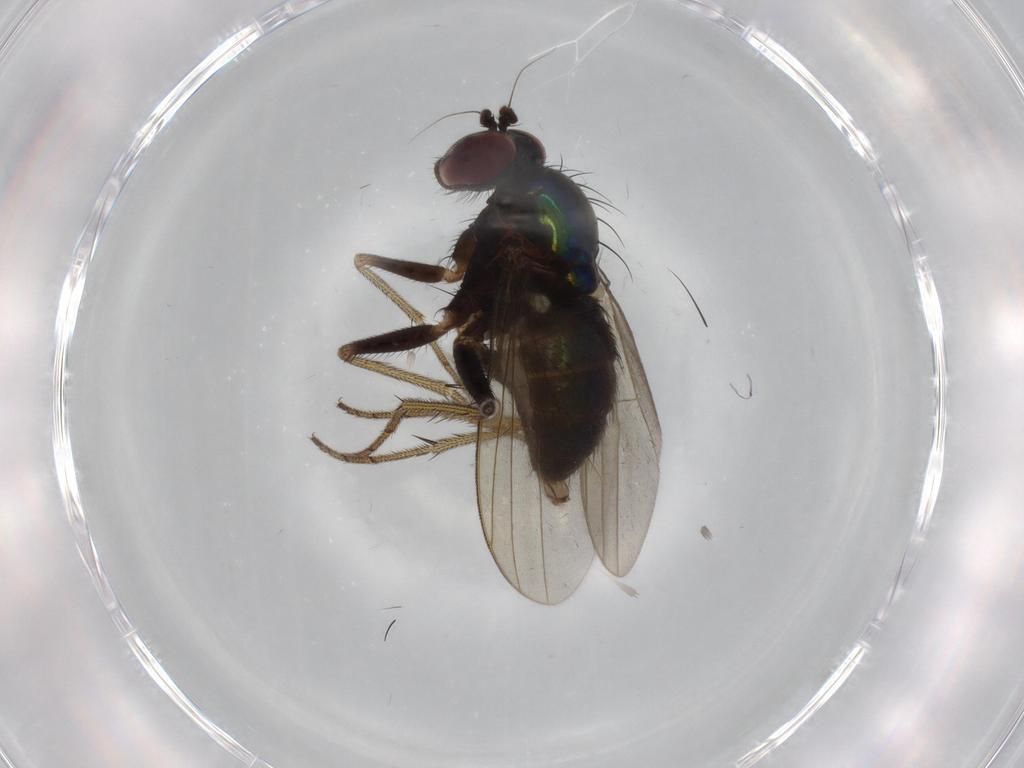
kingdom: Animalia
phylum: Arthropoda
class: Insecta
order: Diptera
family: Dolichopodidae
